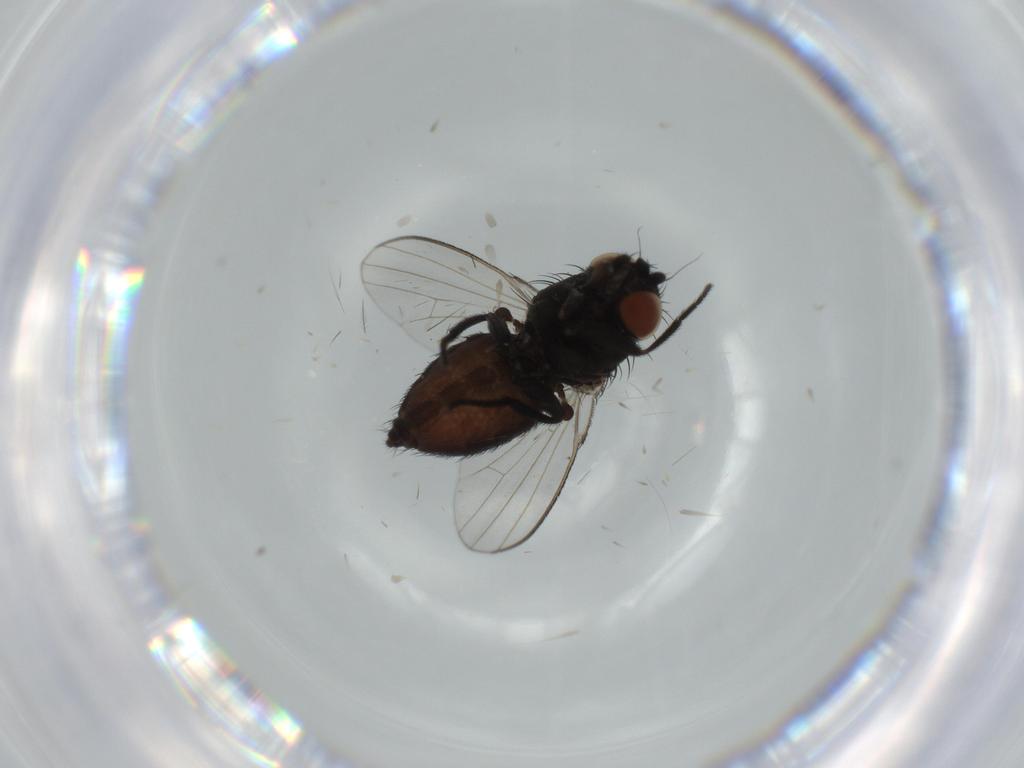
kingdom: Animalia
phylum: Arthropoda
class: Insecta
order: Diptera
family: Milichiidae
